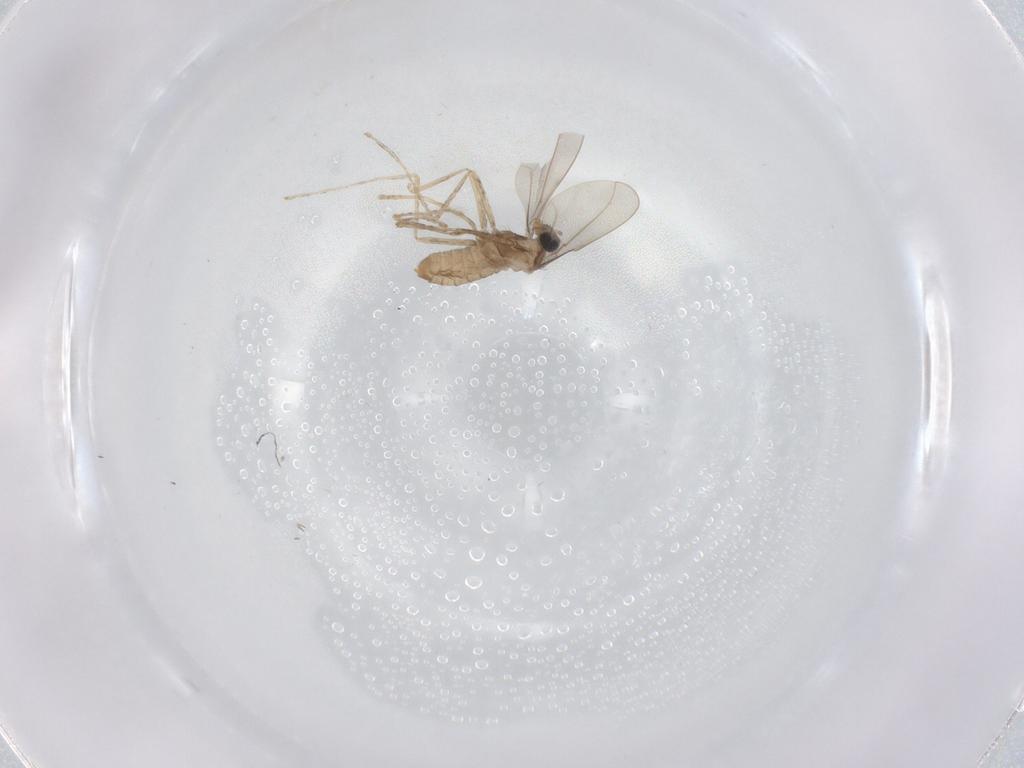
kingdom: Animalia
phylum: Arthropoda
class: Insecta
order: Diptera
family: Cecidomyiidae
